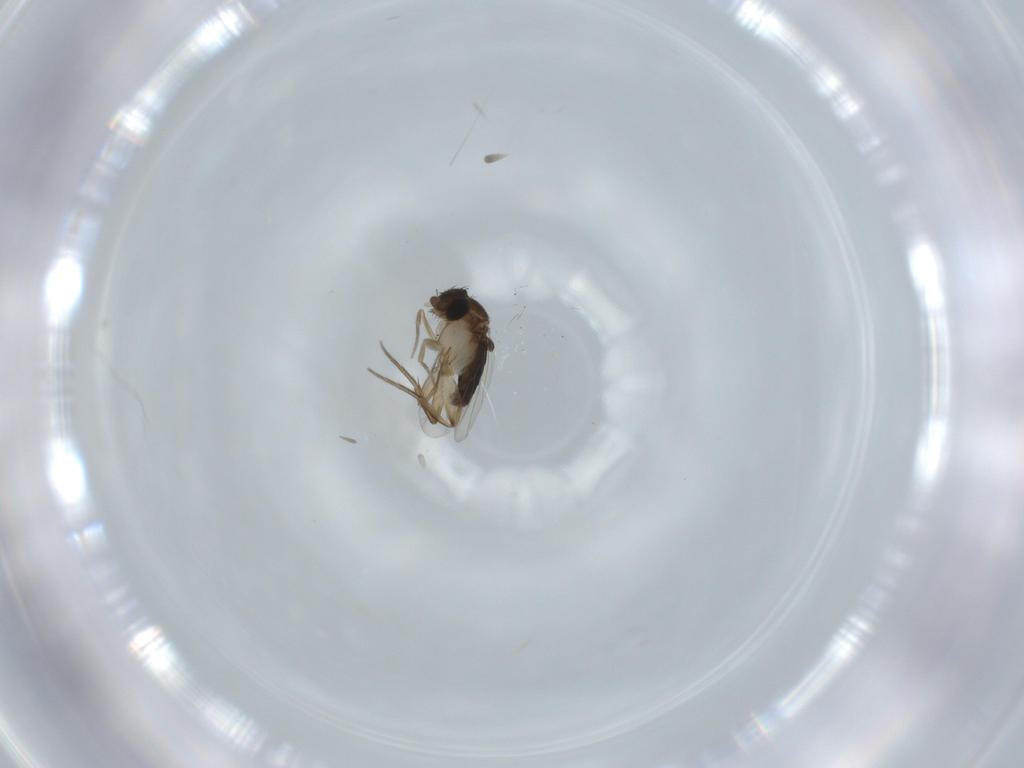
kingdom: Animalia
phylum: Arthropoda
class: Insecta
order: Diptera
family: Phoridae
